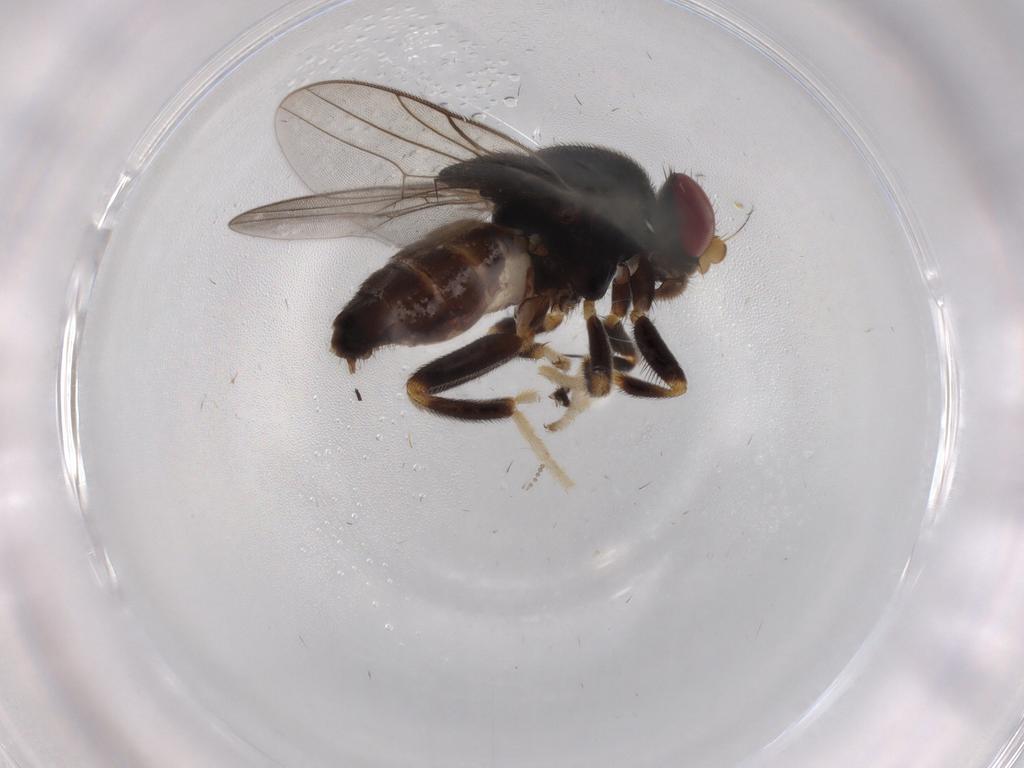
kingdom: Animalia
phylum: Arthropoda
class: Insecta
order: Diptera
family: Chloropidae
